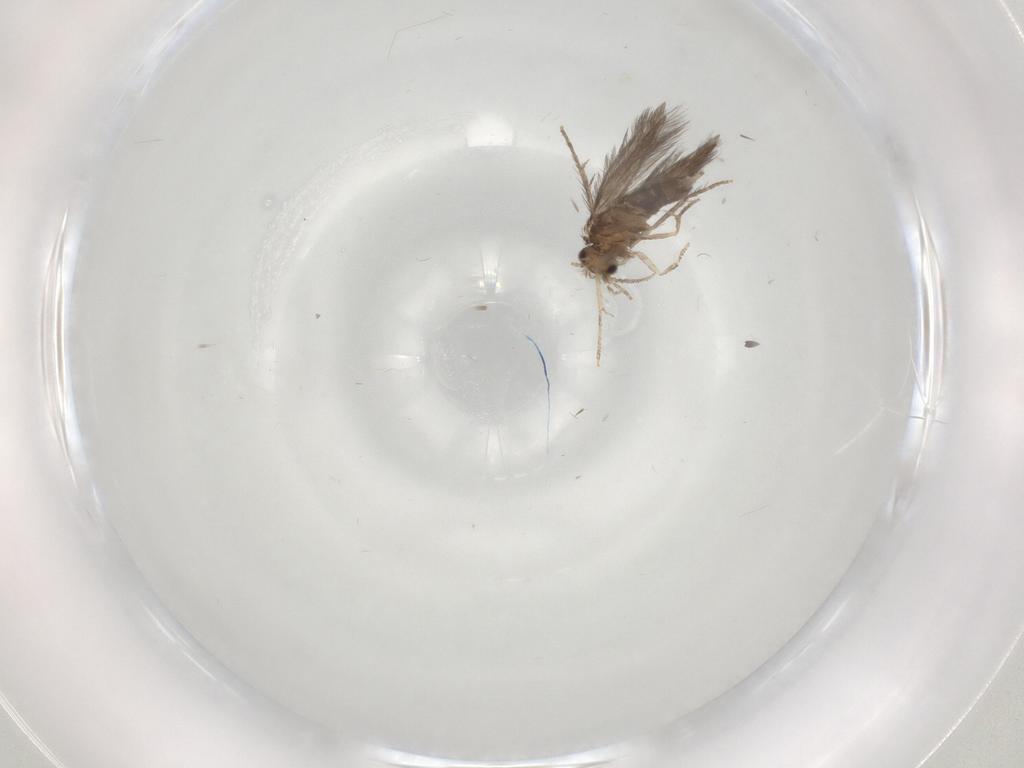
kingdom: Animalia
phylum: Arthropoda
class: Insecta
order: Trichoptera
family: Hydroptilidae
